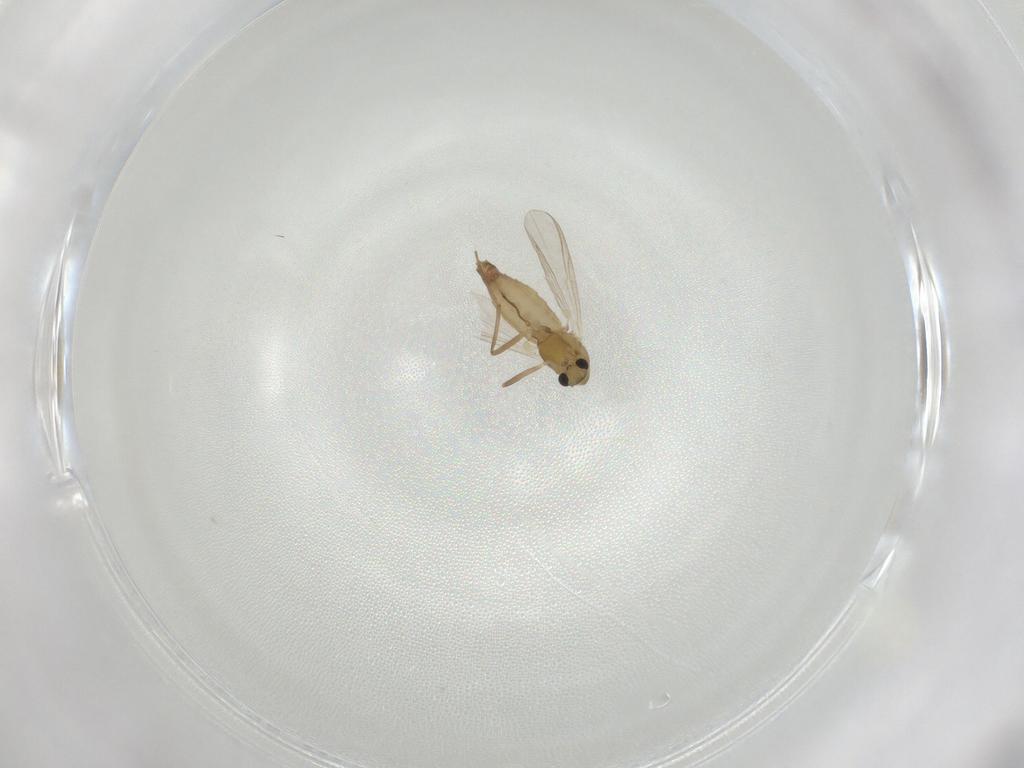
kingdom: Animalia
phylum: Arthropoda
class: Insecta
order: Diptera
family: Chironomidae
